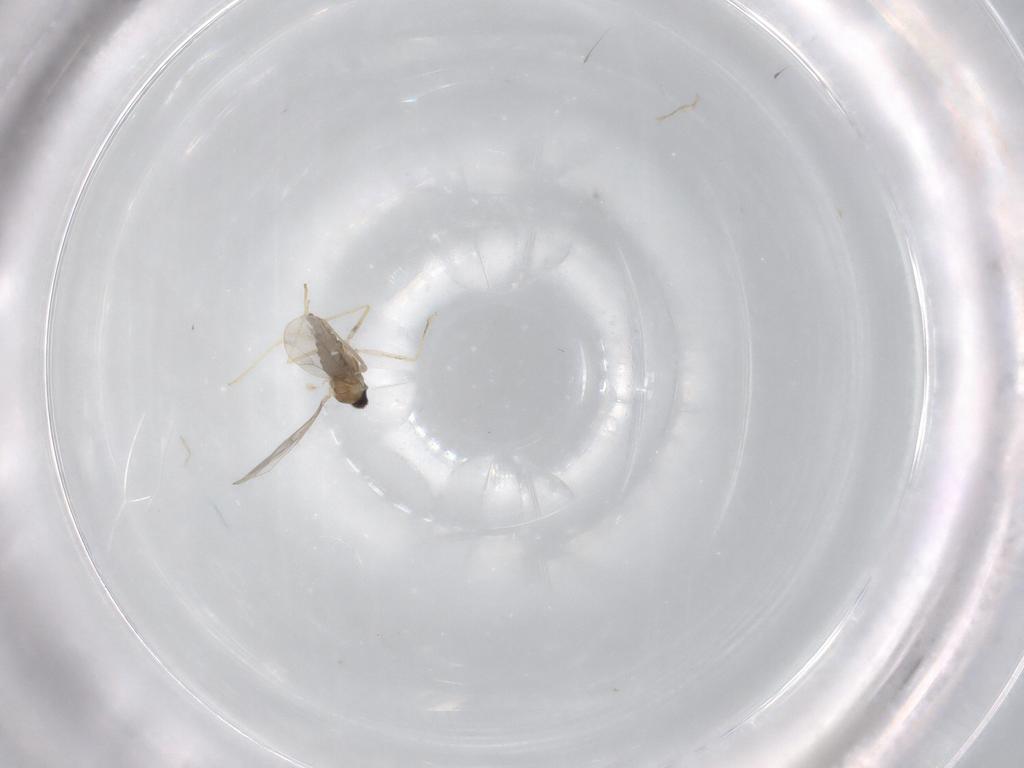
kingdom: Animalia
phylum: Arthropoda
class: Insecta
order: Diptera
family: Cecidomyiidae
